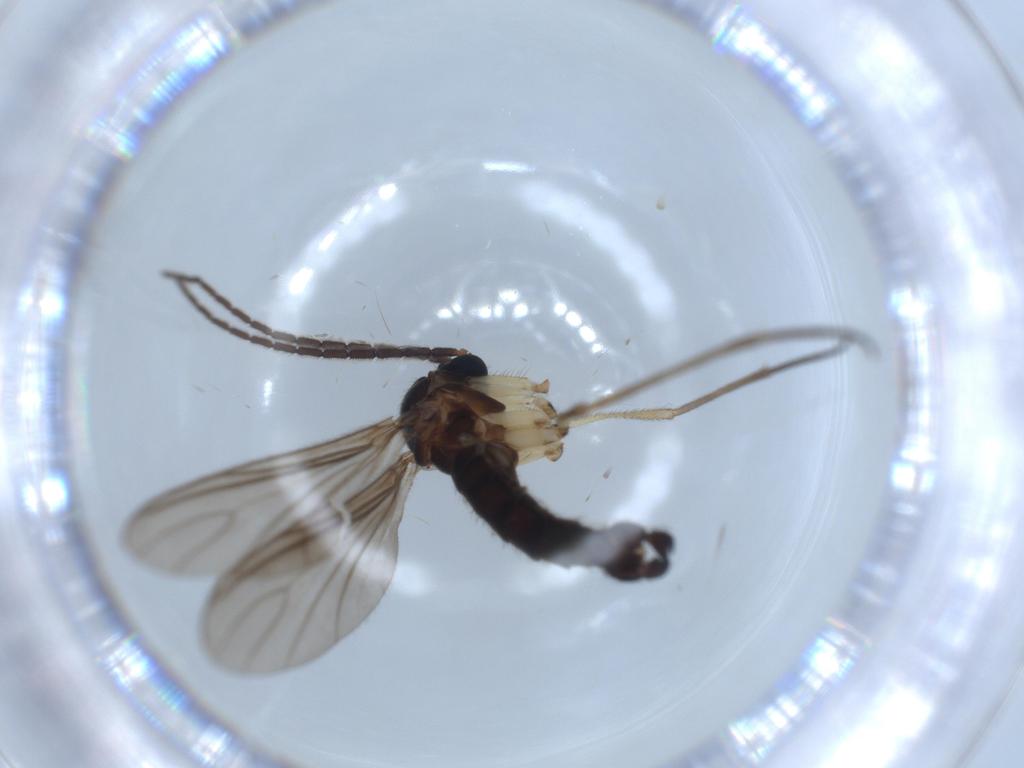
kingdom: Animalia
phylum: Arthropoda
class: Insecta
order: Diptera
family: Sciaridae
